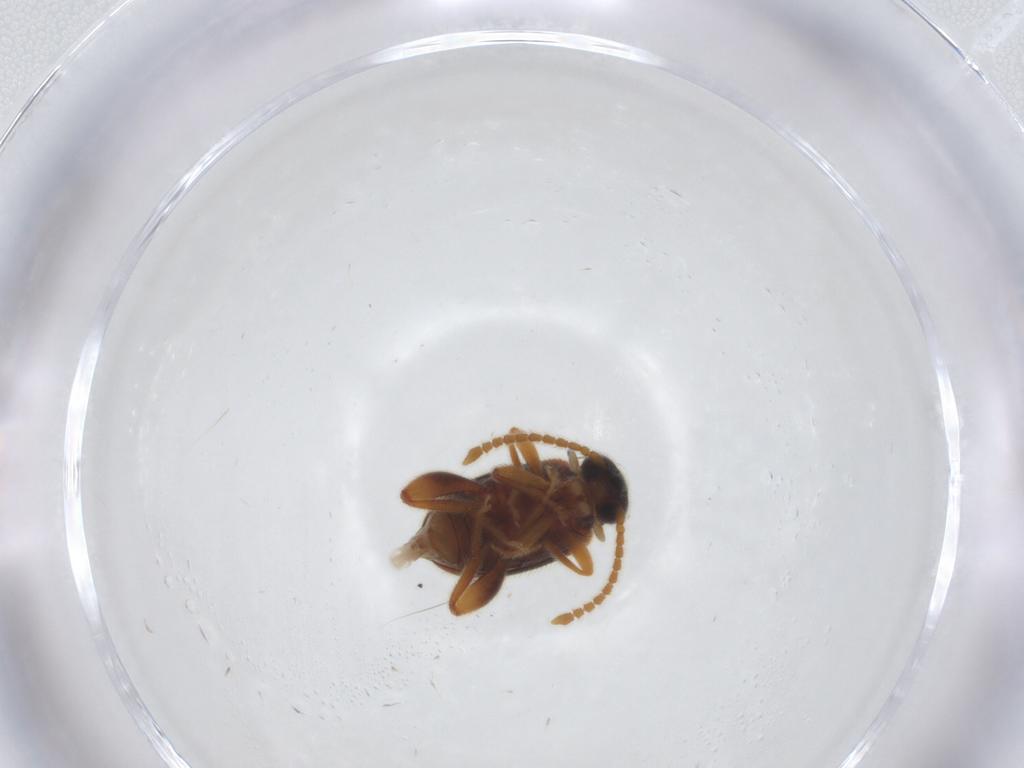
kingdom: Animalia
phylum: Arthropoda
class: Insecta
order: Coleoptera
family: Aderidae
